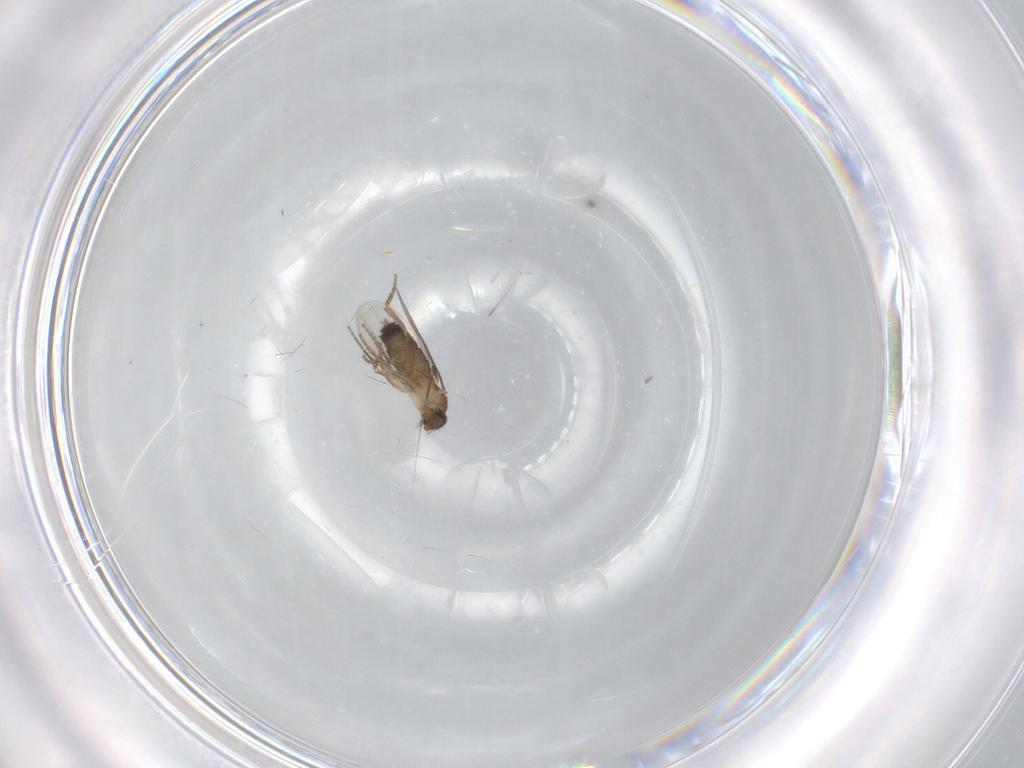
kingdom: Animalia
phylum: Arthropoda
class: Insecta
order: Diptera
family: Phoridae
